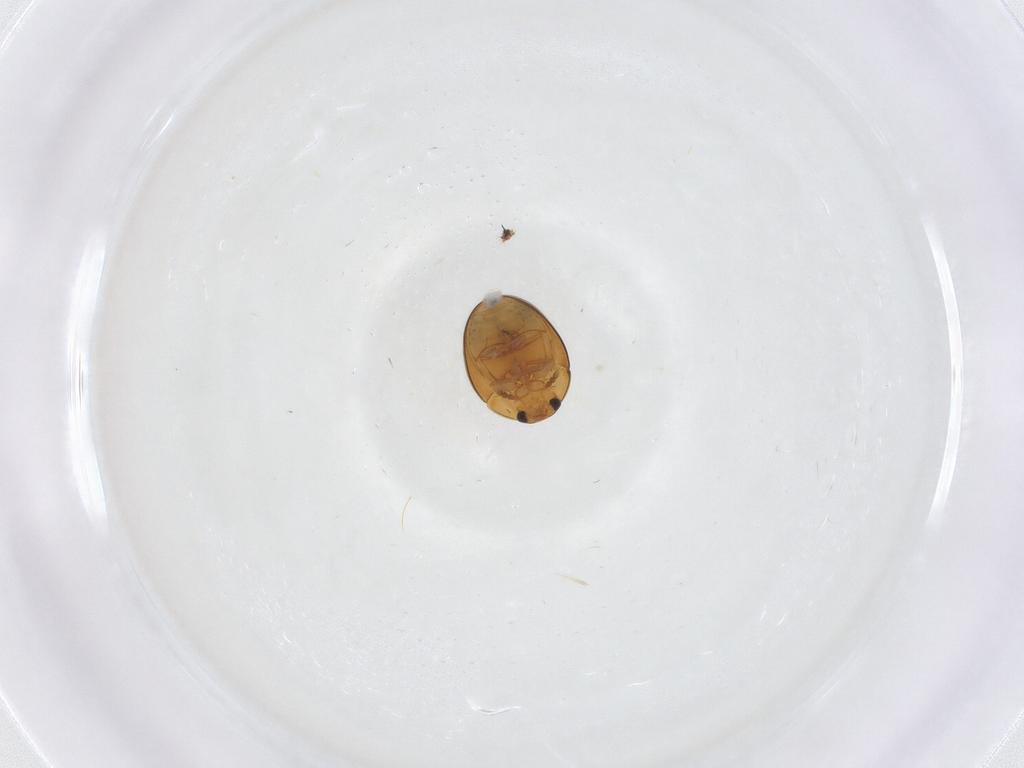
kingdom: Animalia
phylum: Arthropoda
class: Insecta
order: Coleoptera
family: Phalacridae
